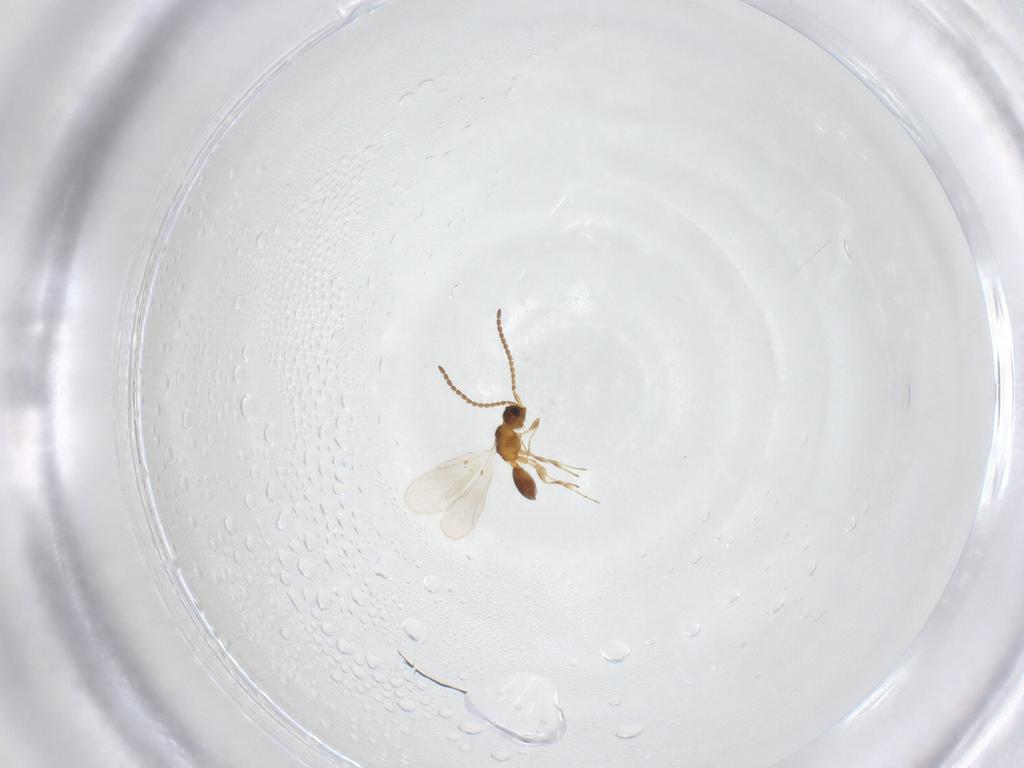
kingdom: Animalia
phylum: Arthropoda
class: Insecta
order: Hymenoptera
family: Diapriidae
